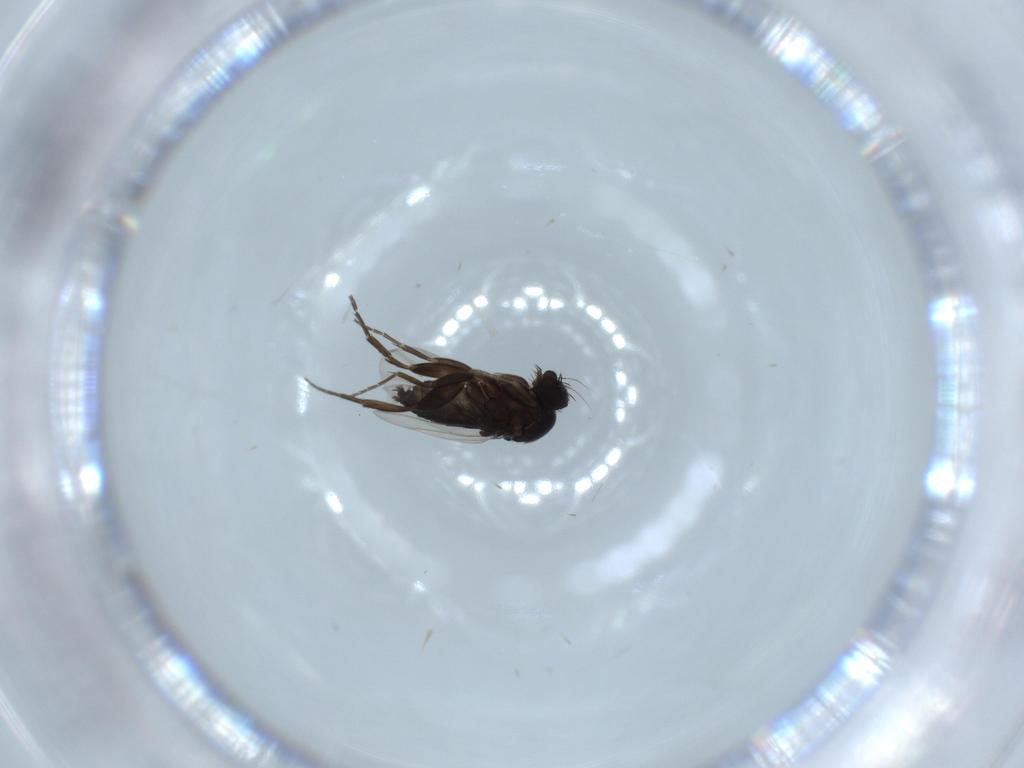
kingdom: Animalia
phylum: Arthropoda
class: Insecta
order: Diptera
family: Phoridae
